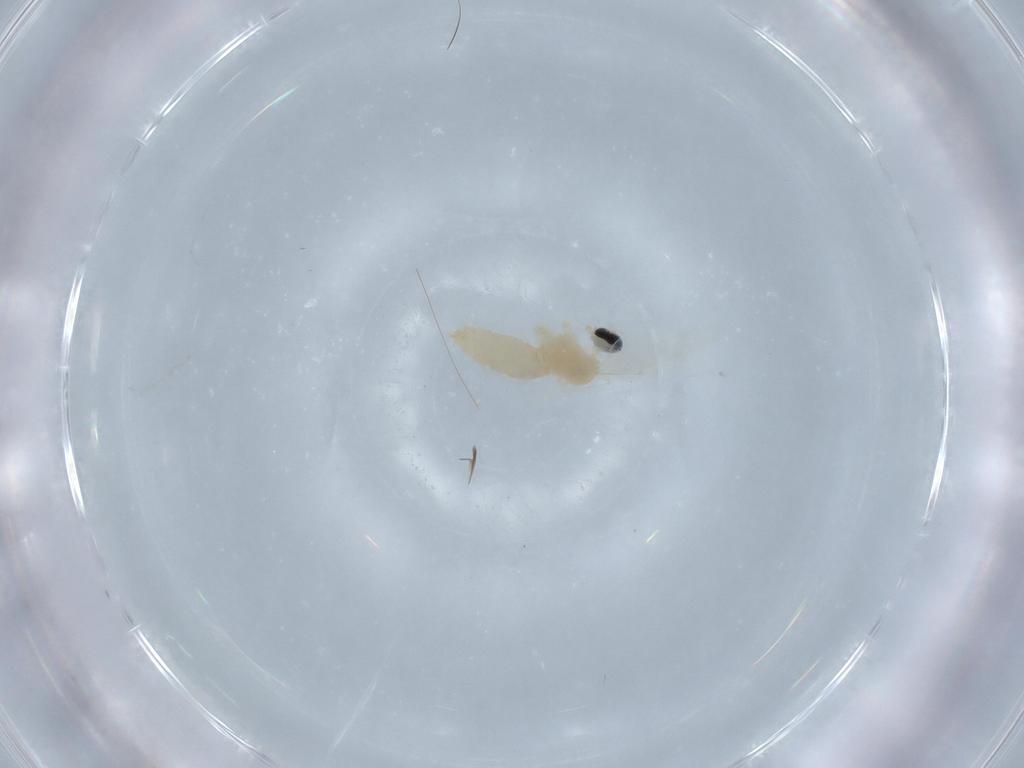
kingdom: Animalia
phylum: Arthropoda
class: Insecta
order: Diptera
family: Cecidomyiidae
